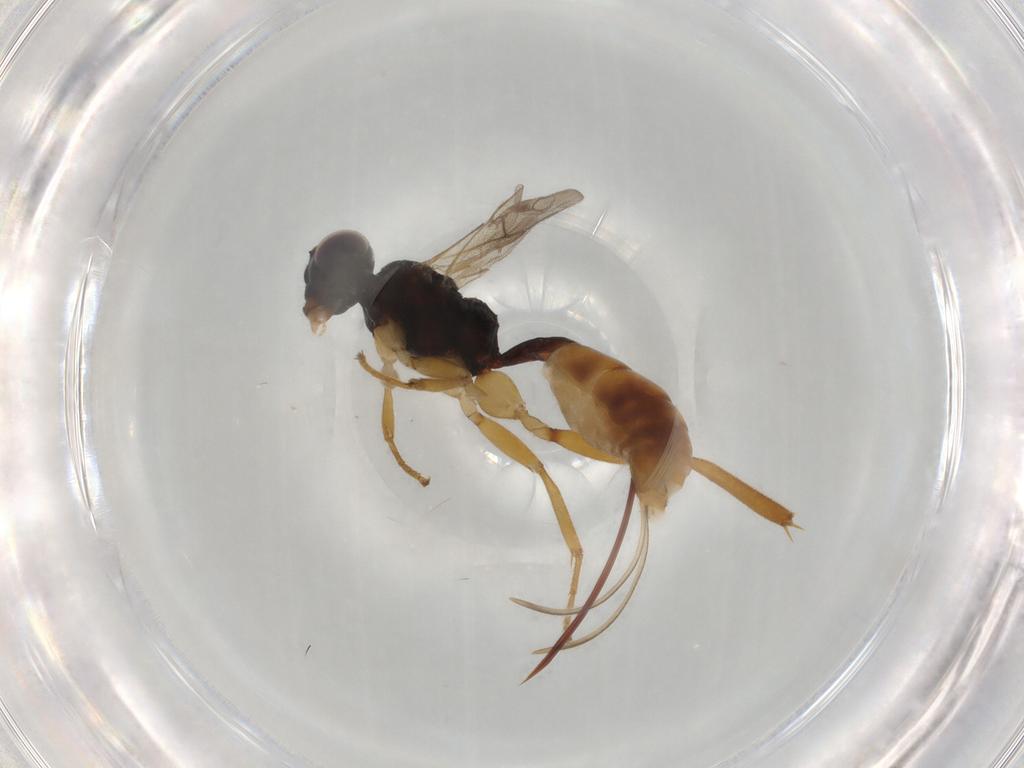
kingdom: Animalia
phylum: Arthropoda
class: Insecta
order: Hymenoptera
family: Ichneumonidae
